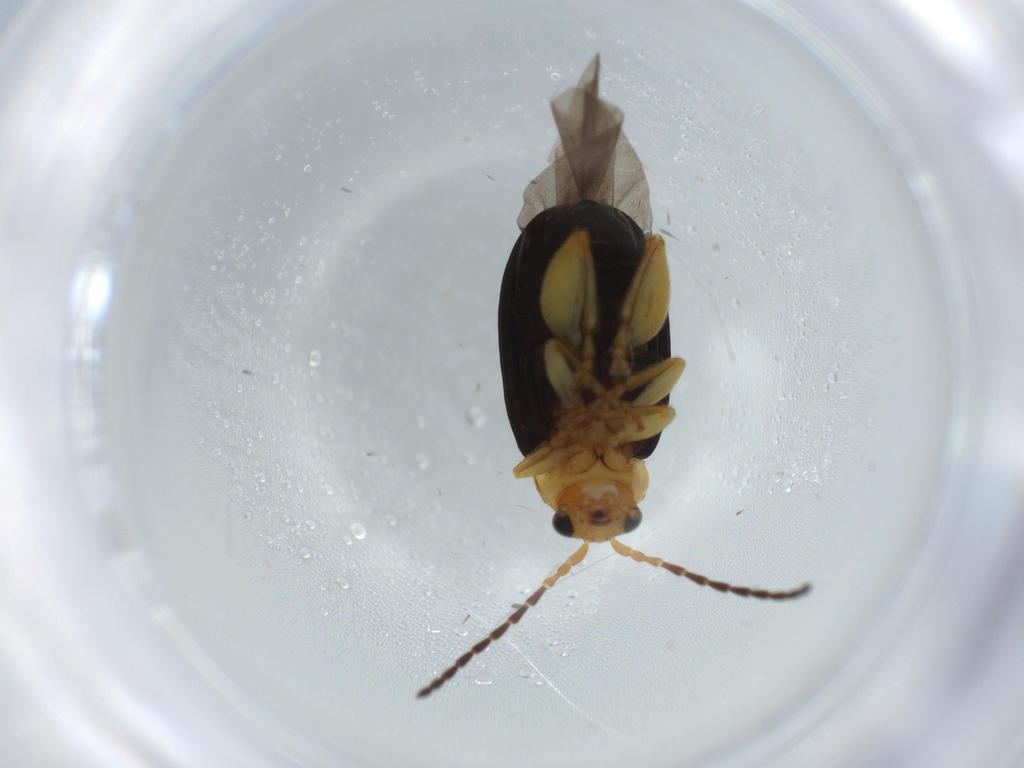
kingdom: Animalia
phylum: Arthropoda
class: Insecta
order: Coleoptera
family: Chrysomelidae
